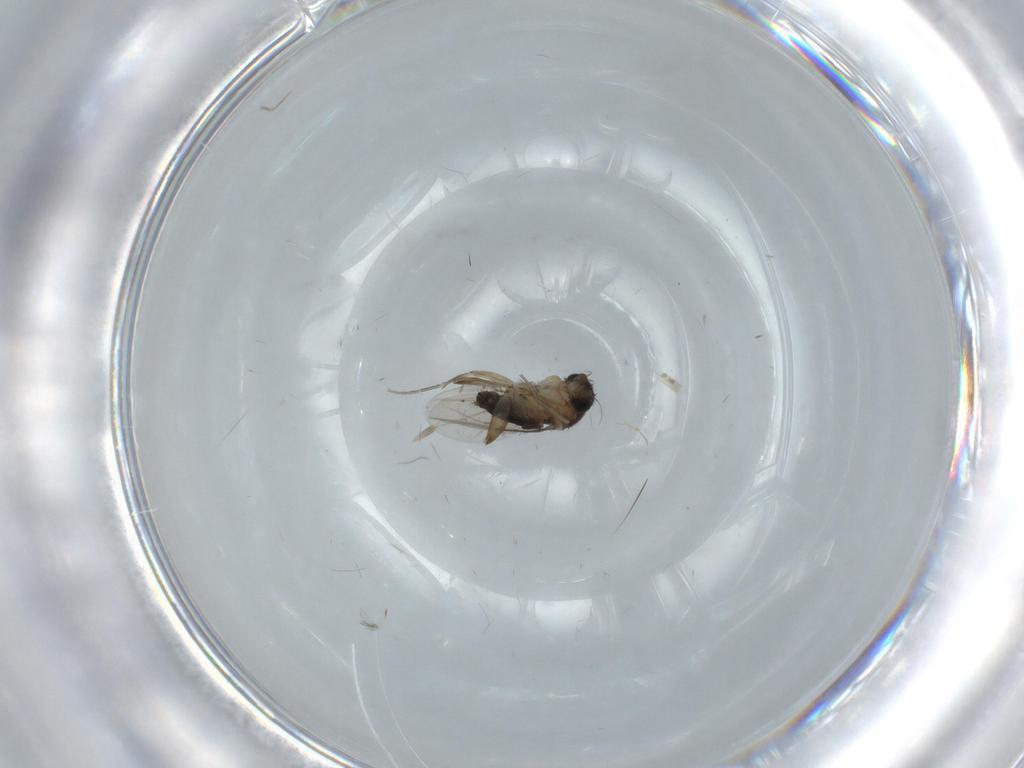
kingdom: Animalia
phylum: Arthropoda
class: Insecta
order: Diptera
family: Phoridae
